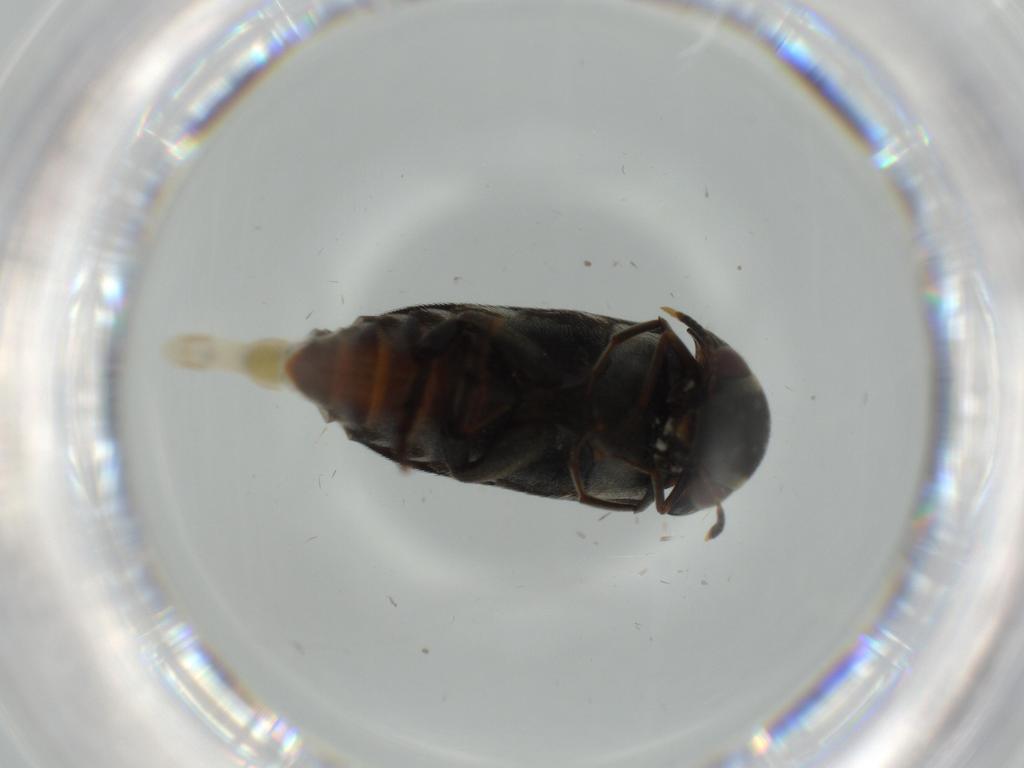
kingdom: Animalia
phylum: Arthropoda
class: Insecta
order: Coleoptera
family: Mordellidae
